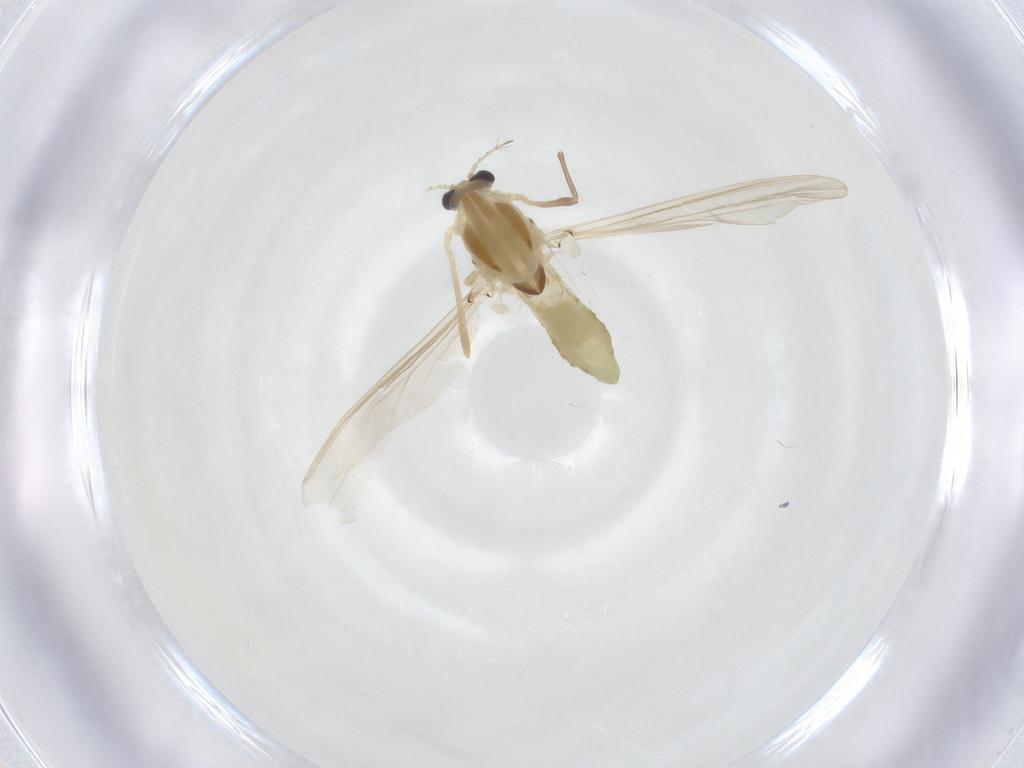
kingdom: Animalia
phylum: Arthropoda
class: Insecta
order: Diptera
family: Chironomidae
